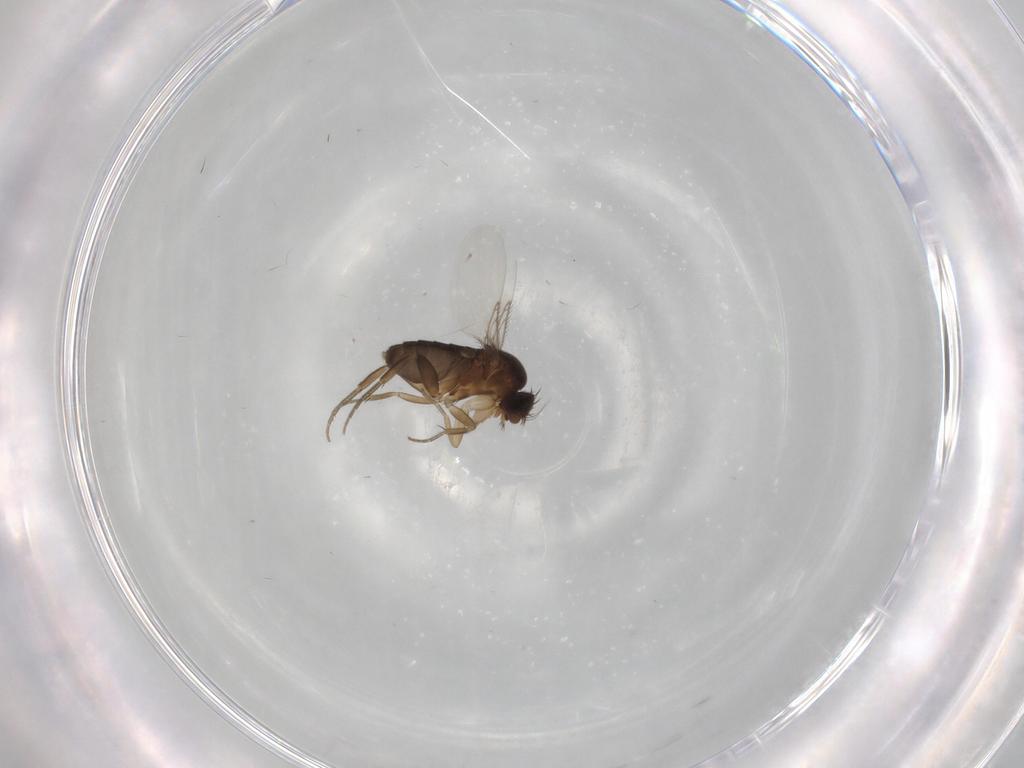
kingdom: Animalia
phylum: Arthropoda
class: Insecta
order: Diptera
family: Phoridae
